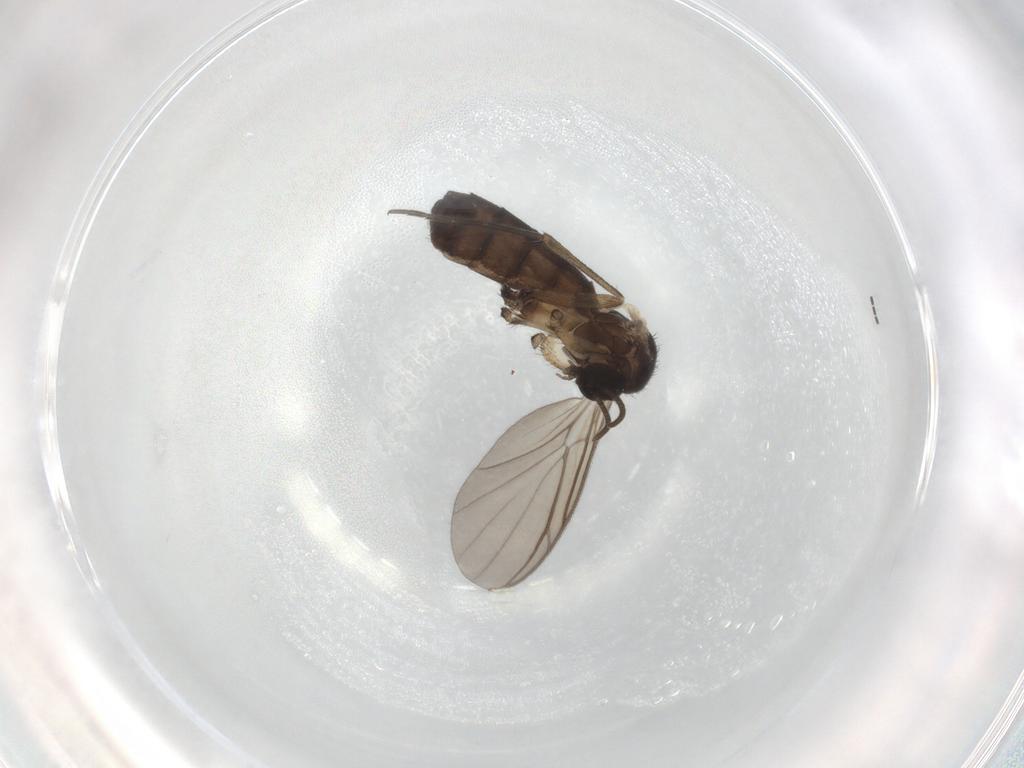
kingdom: Animalia
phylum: Arthropoda
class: Insecta
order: Diptera
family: Keroplatidae
